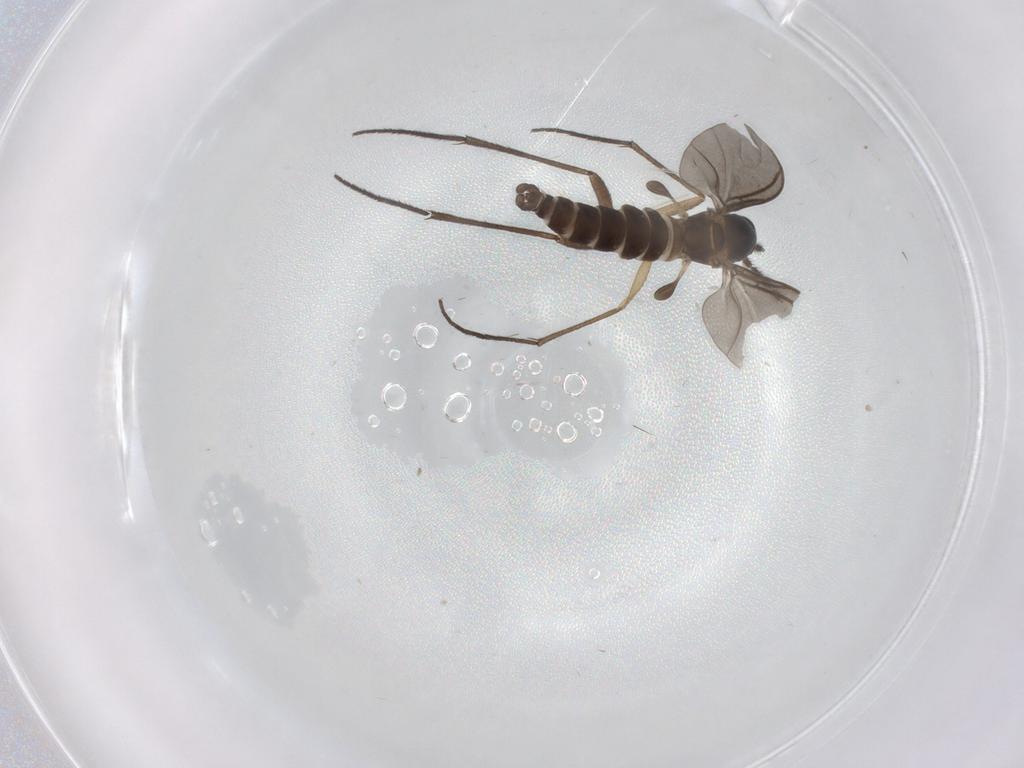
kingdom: Animalia
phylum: Arthropoda
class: Insecta
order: Diptera
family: Sciaridae
